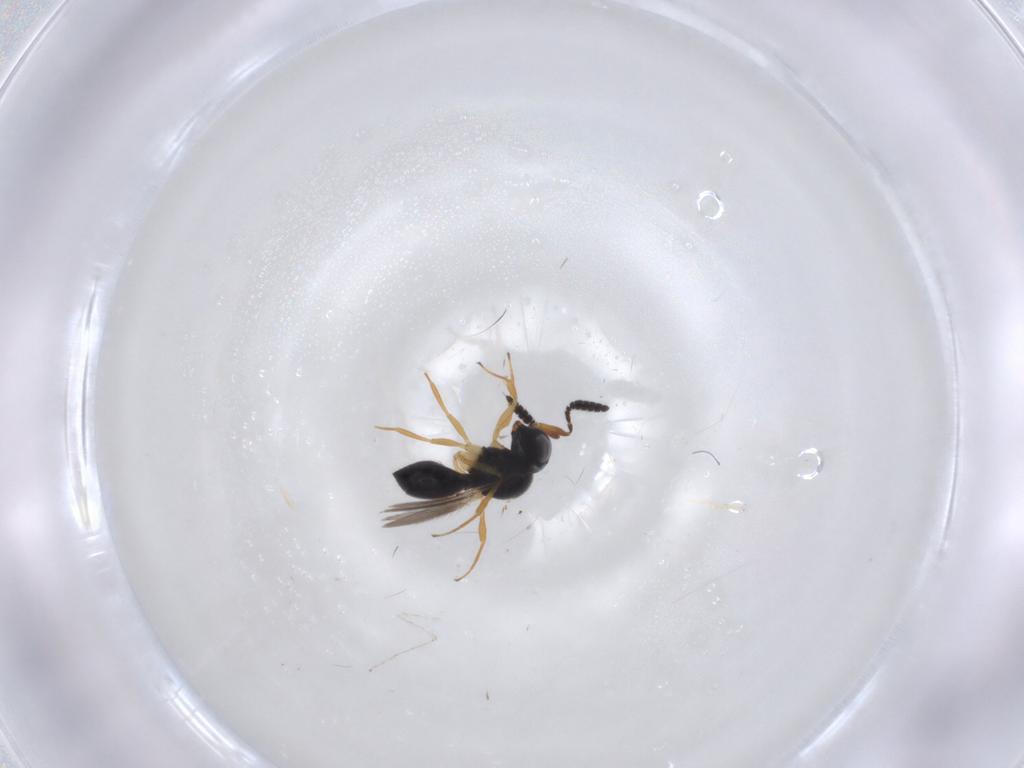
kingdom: Animalia
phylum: Arthropoda
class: Insecta
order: Hymenoptera
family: Scelionidae
